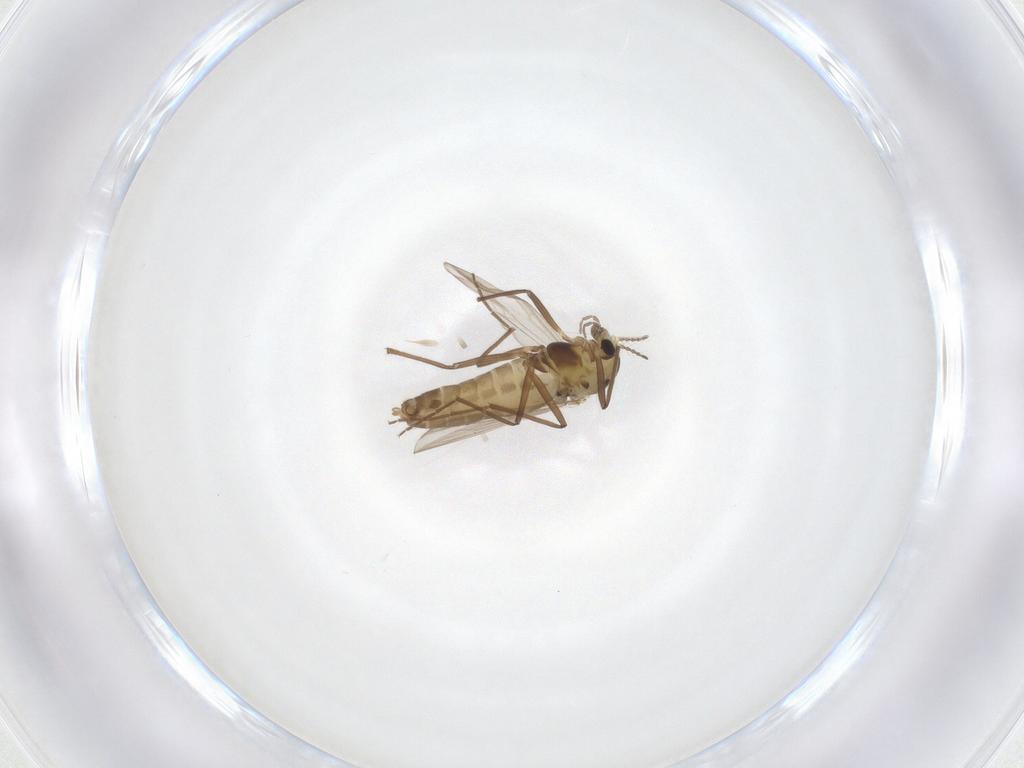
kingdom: Animalia
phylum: Arthropoda
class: Insecta
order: Diptera
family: Chironomidae
